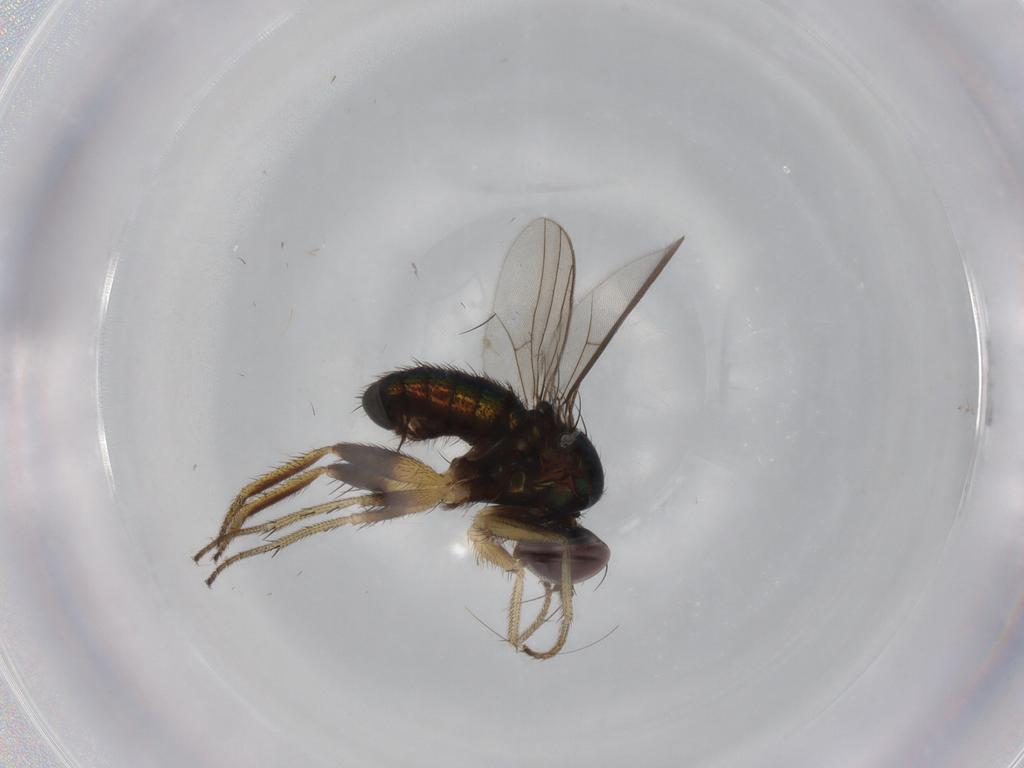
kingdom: Animalia
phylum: Arthropoda
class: Insecta
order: Diptera
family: Dolichopodidae
